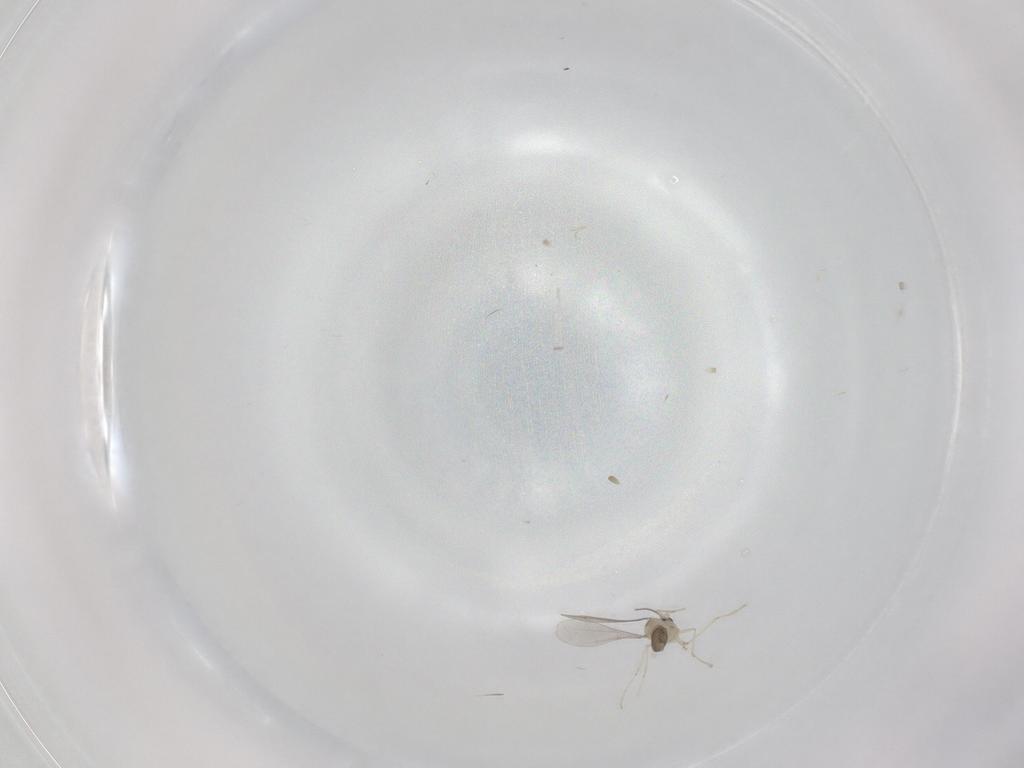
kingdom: Animalia
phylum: Arthropoda
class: Insecta
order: Diptera
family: Cecidomyiidae
